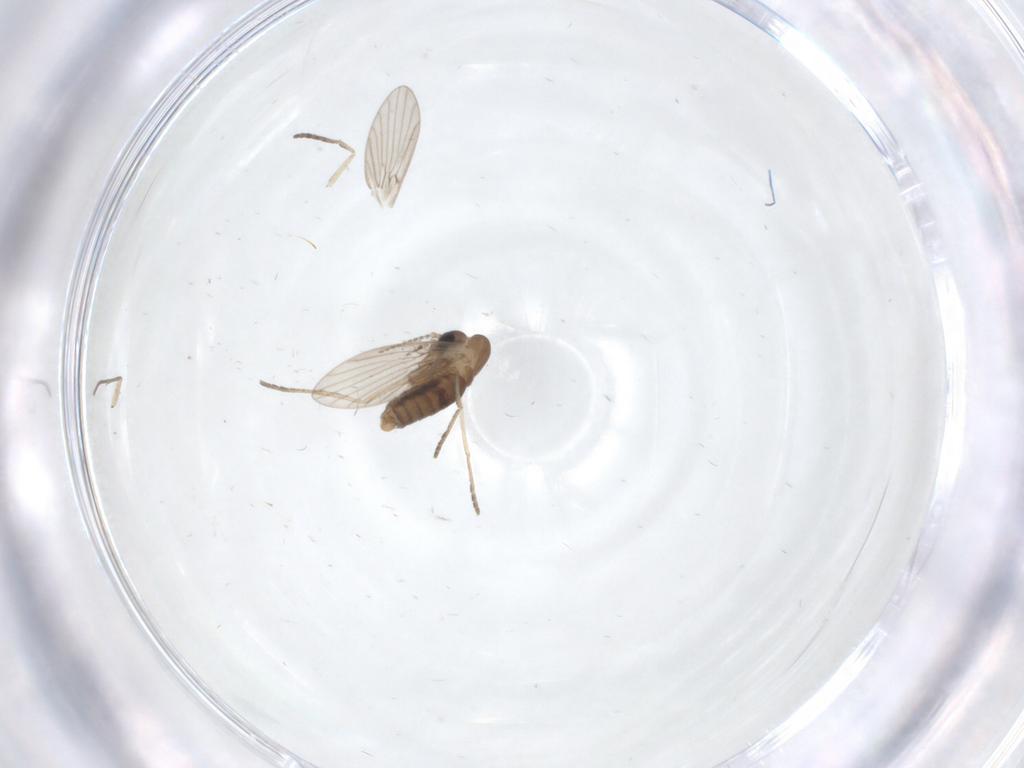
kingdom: Animalia
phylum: Arthropoda
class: Insecta
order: Diptera
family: Sciaridae
